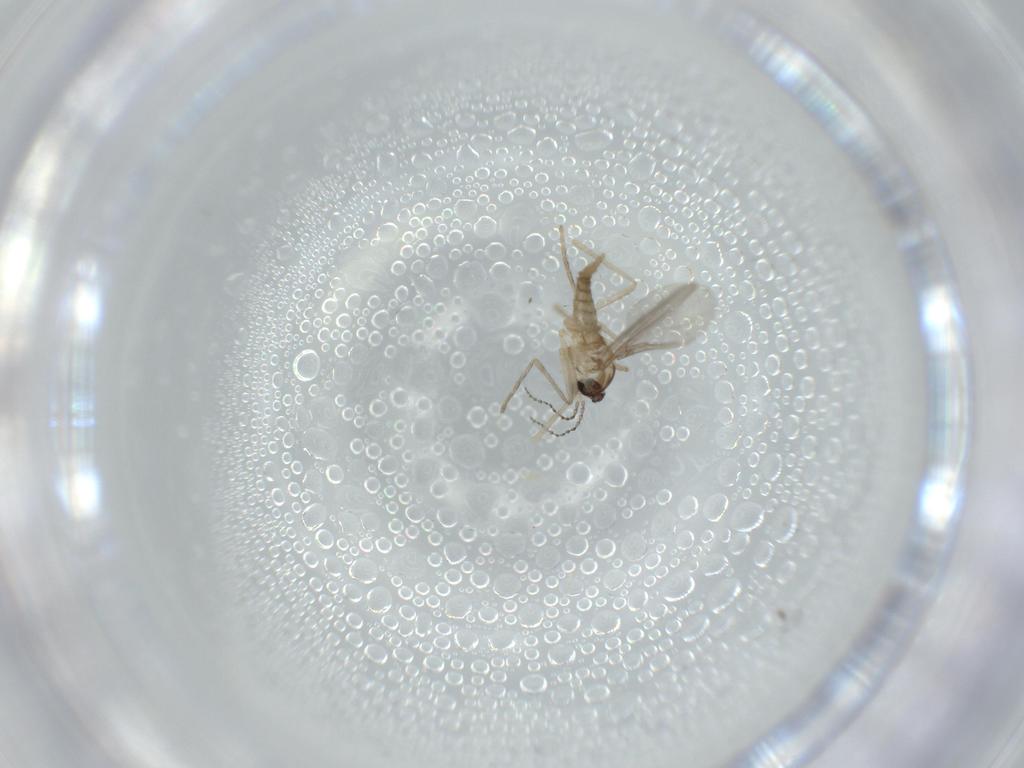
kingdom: Animalia
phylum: Arthropoda
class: Insecta
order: Diptera
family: Cecidomyiidae
